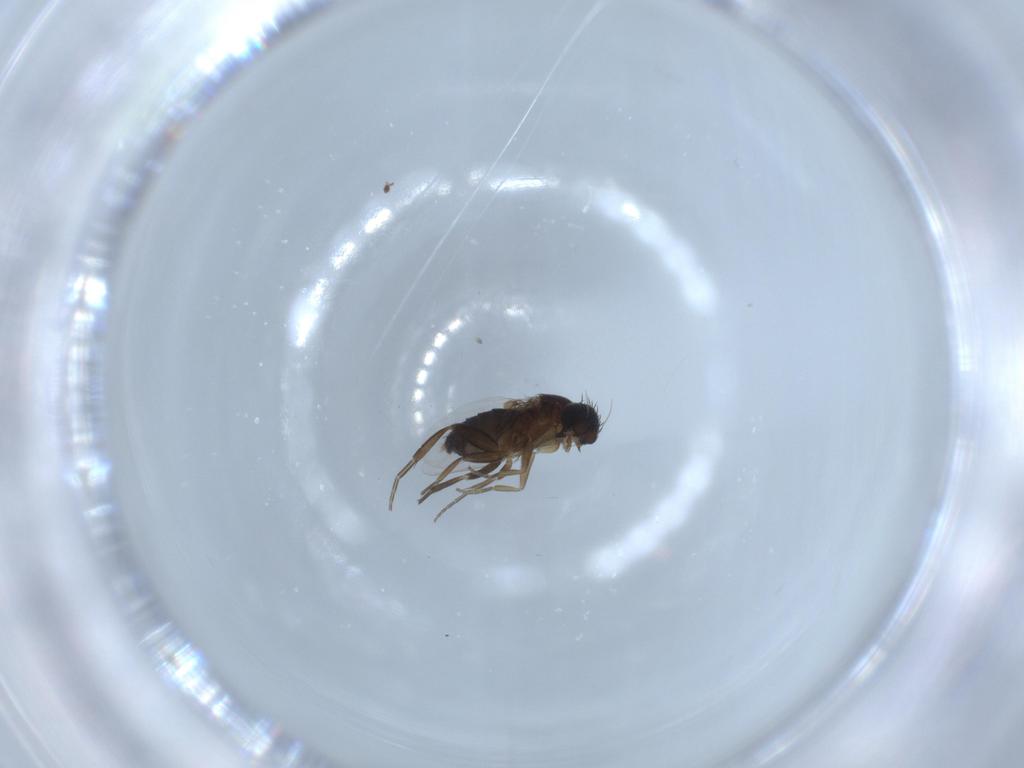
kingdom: Animalia
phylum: Arthropoda
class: Insecta
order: Diptera
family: Phoridae
